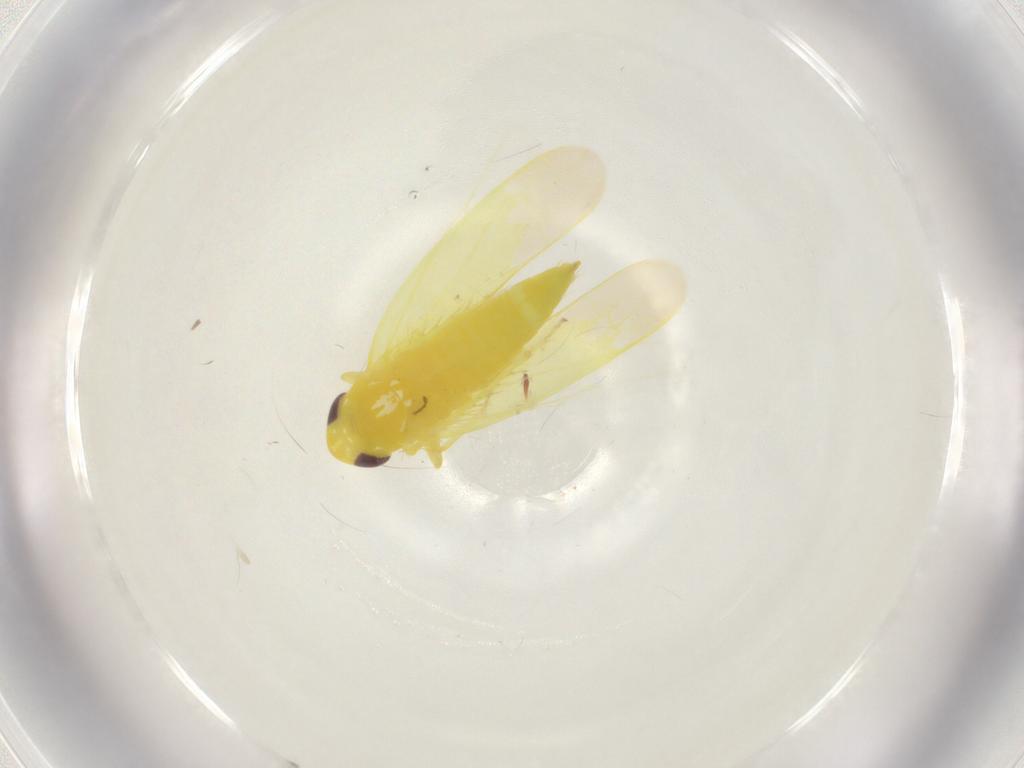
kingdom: Animalia
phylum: Arthropoda
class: Insecta
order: Hemiptera
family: Cicadellidae
